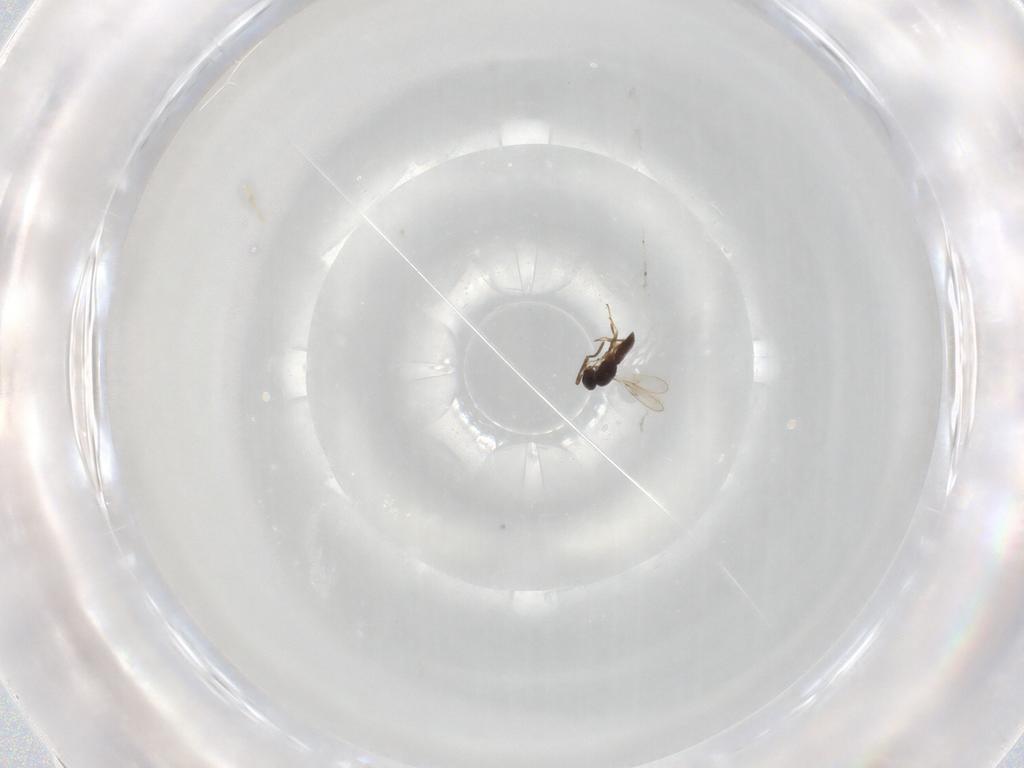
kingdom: Animalia
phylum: Arthropoda
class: Insecta
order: Hymenoptera
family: Scelionidae
